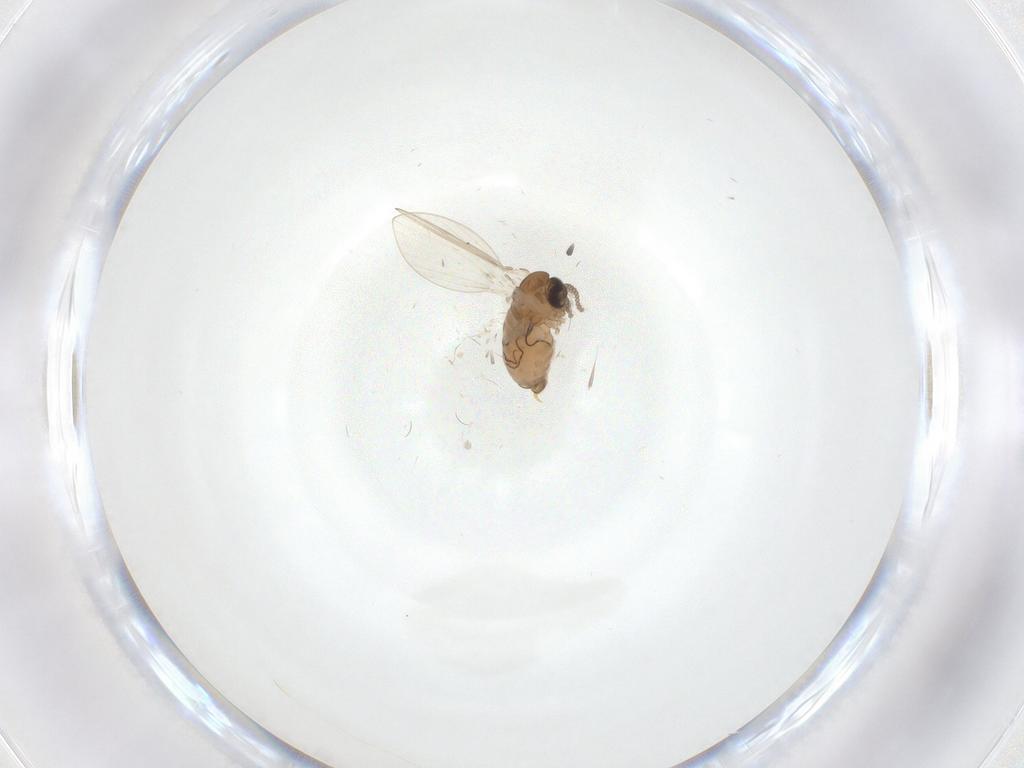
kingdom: Animalia
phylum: Arthropoda
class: Insecta
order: Diptera
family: Psychodidae
